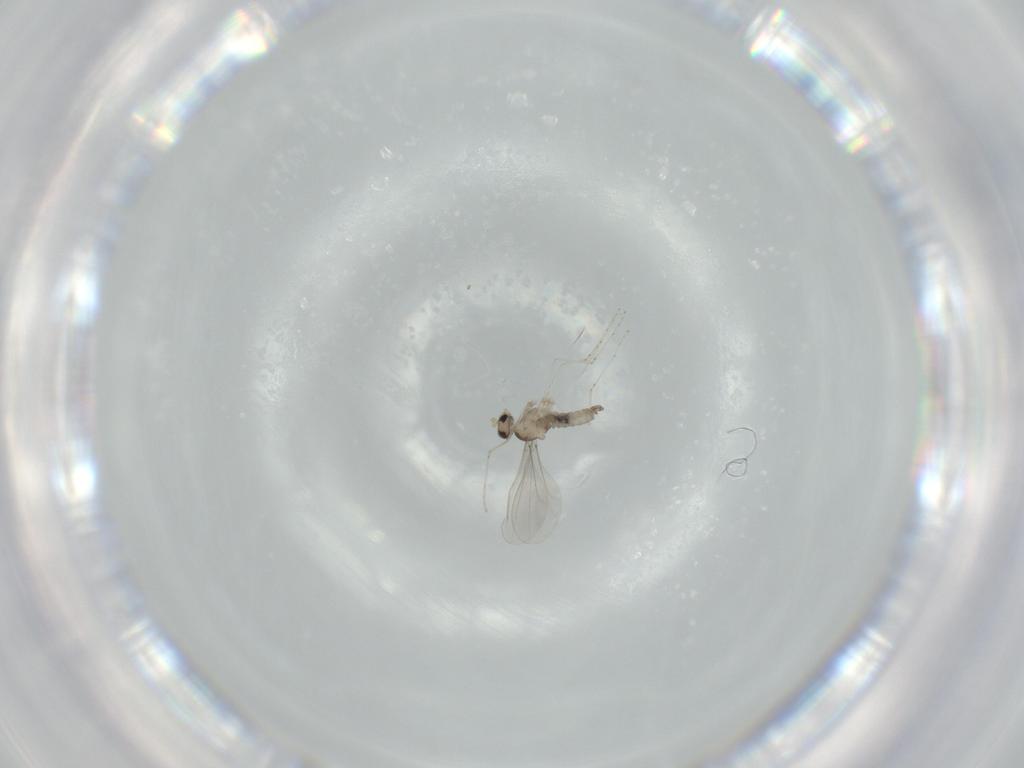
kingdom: Animalia
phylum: Arthropoda
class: Insecta
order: Diptera
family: Cecidomyiidae
